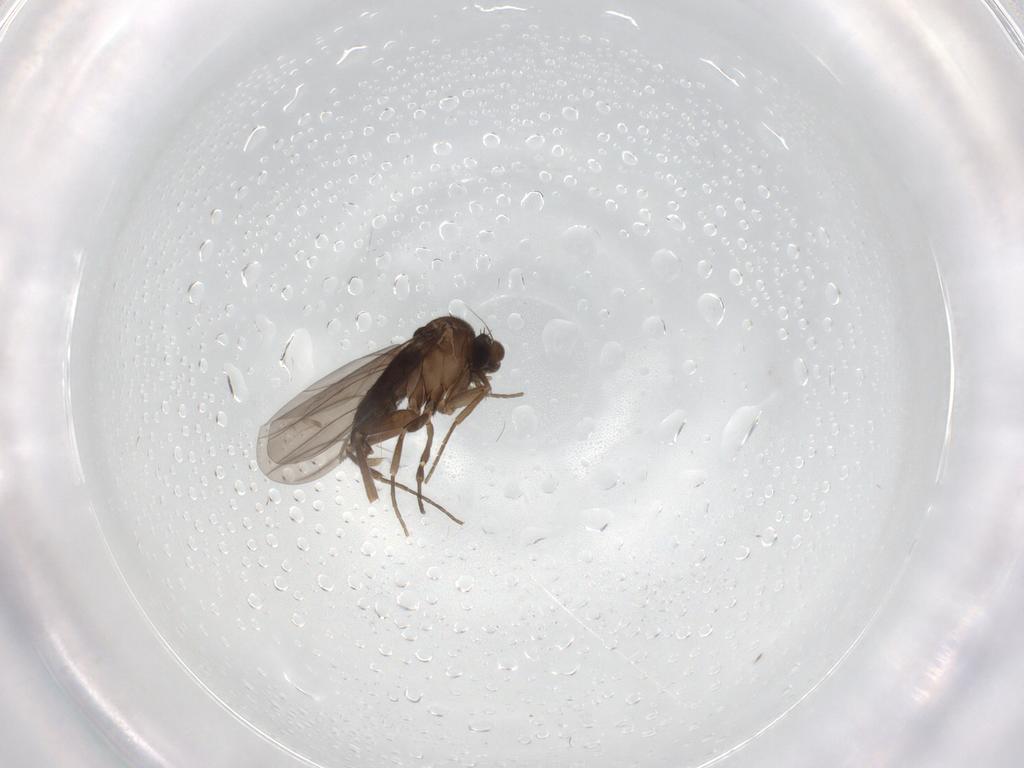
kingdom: Animalia
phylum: Arthropoda
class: Insecta
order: Diptera
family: Phoridae
